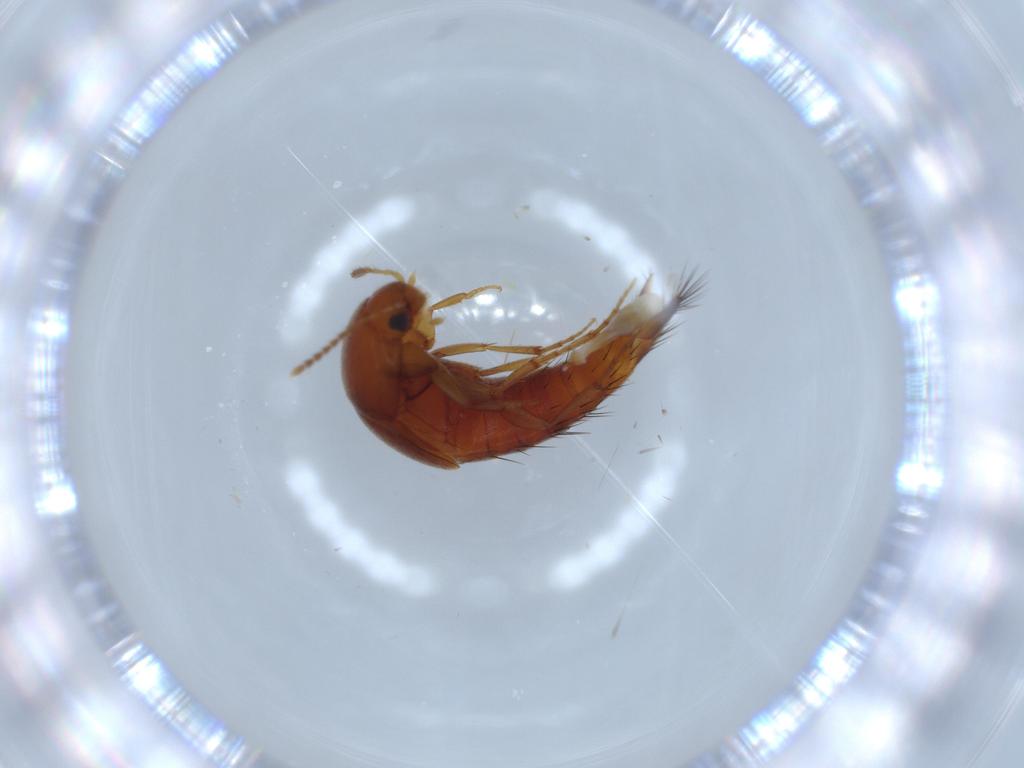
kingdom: Animalia
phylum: Arthropoda
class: Insecta
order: Coleoptera
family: Staphylinidae
